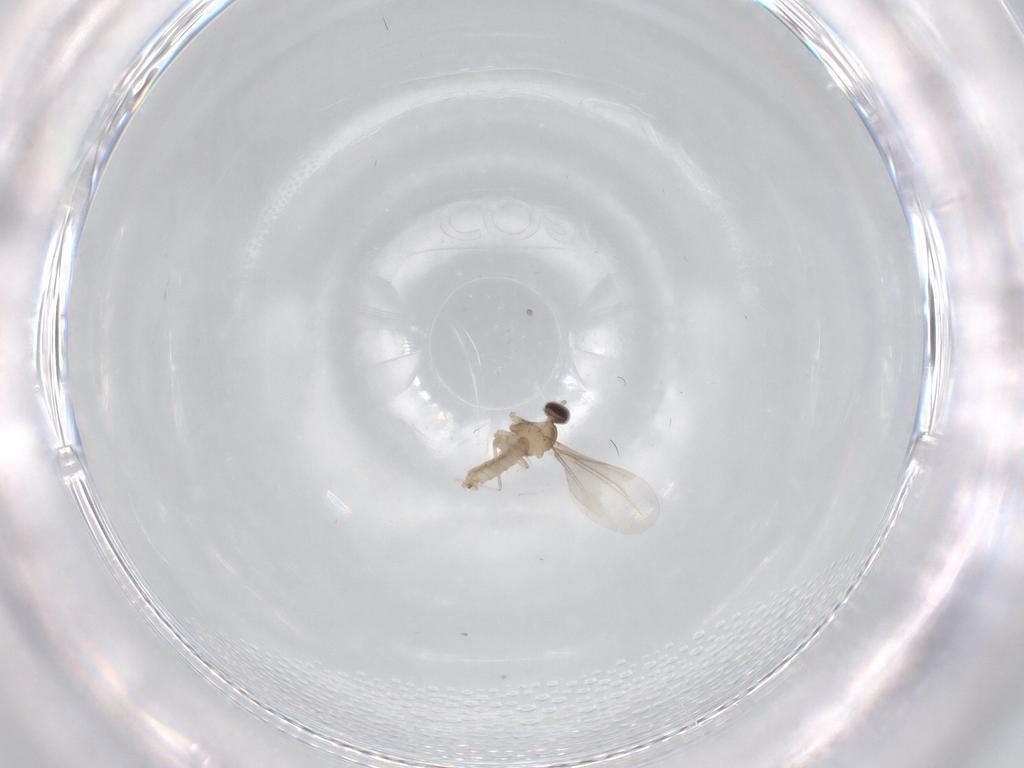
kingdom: Animalia
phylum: Arthropoda
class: Insecta
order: Diptera
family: Cecidomyiidae
